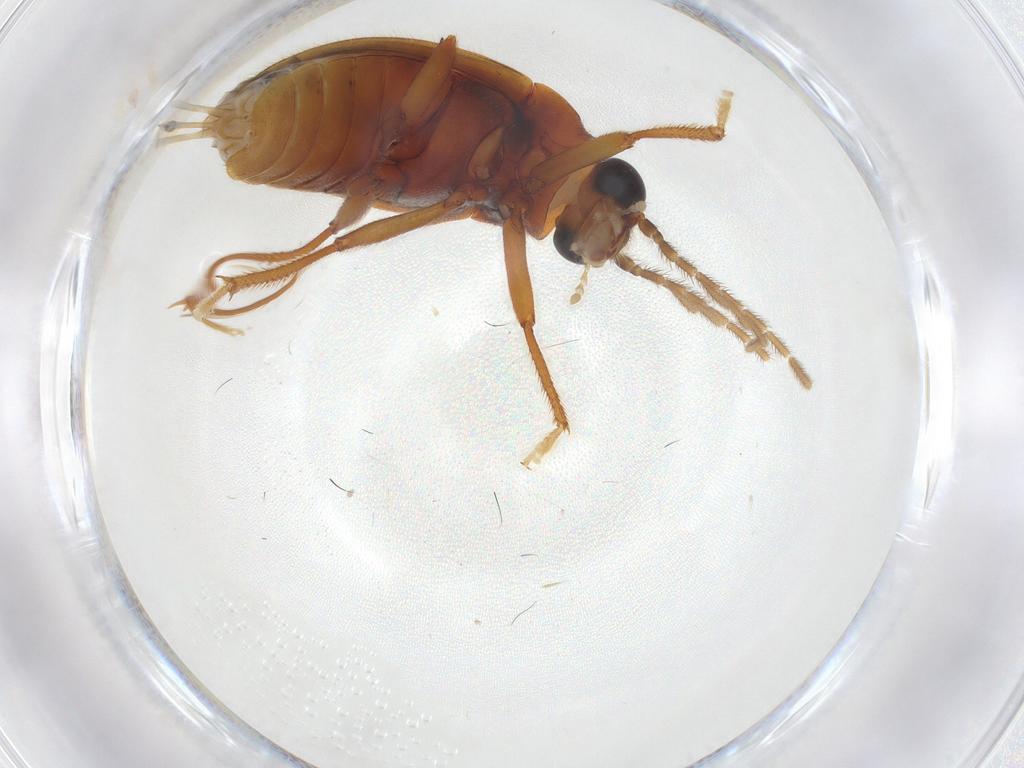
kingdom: Animalia
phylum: Arthropoda
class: Insecta
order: Coleoptera
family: Ptilodactylidae
